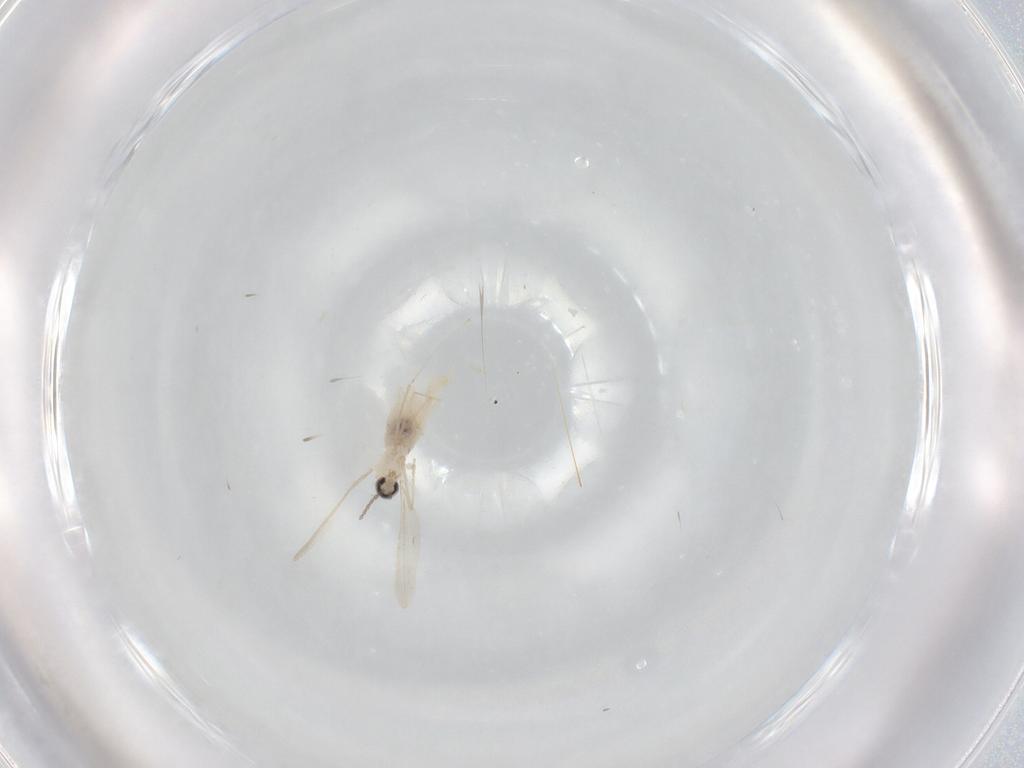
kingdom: Animalia
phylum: Arthropoda
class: Insecta
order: Diptera
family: Cecidomyiidae
